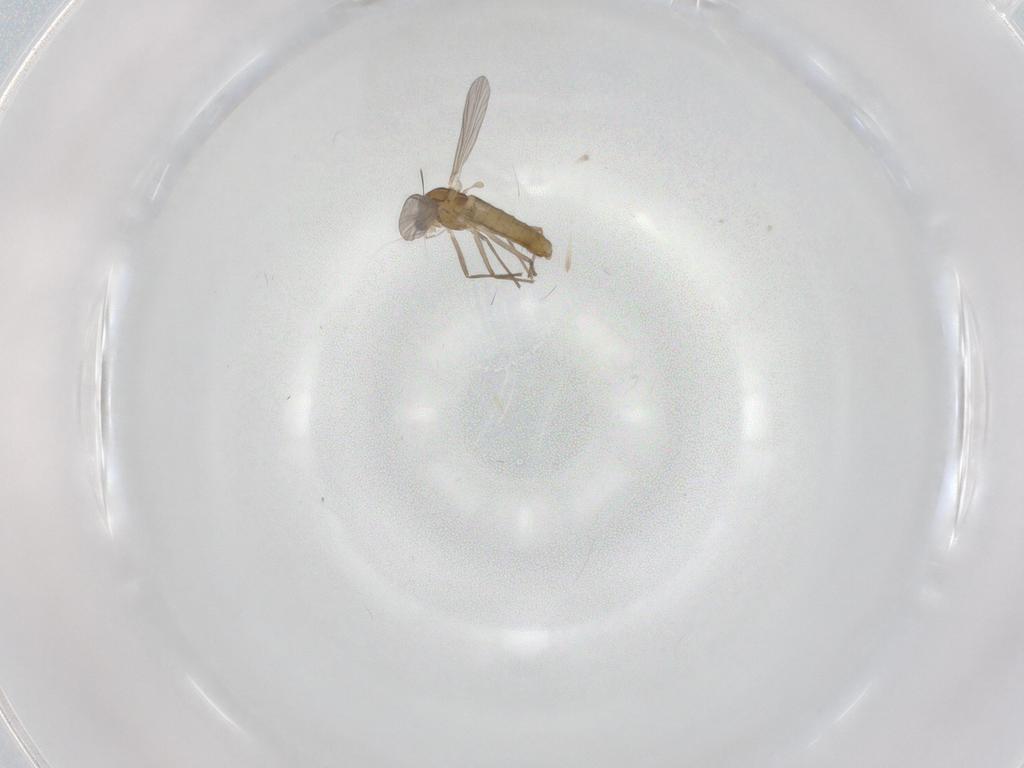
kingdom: Animalia
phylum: Arthropoda
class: Insecta
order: Diptera
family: Chironomidae
